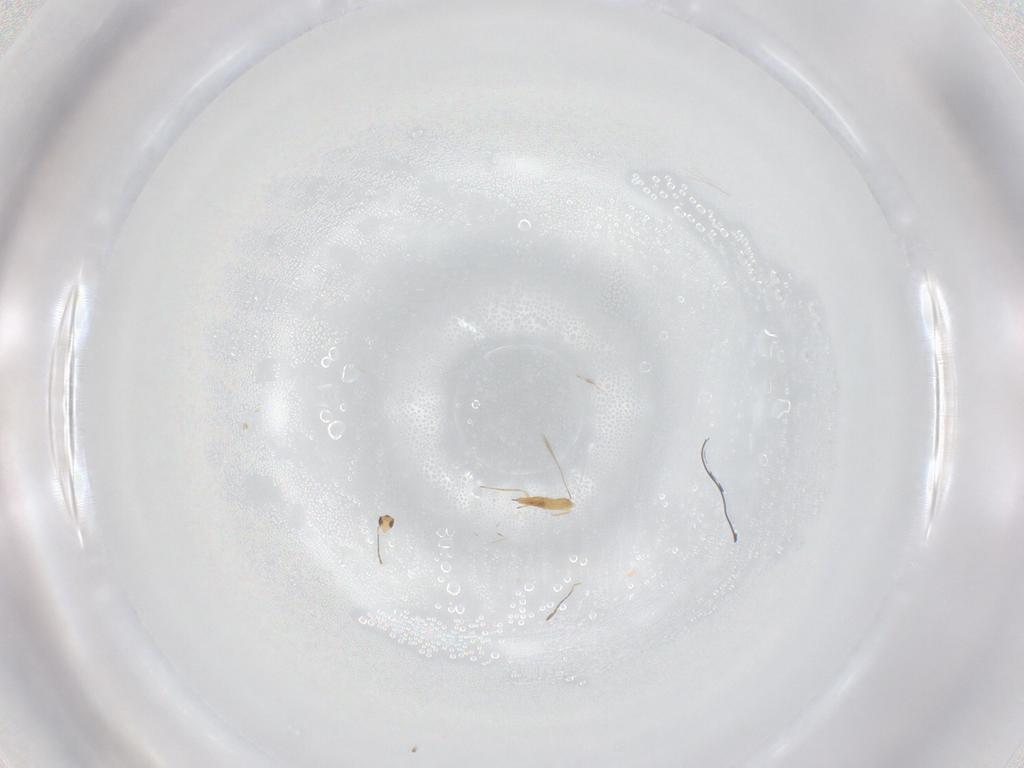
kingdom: Animalia
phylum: Arthropoda
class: Insecta
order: Hymenoptera
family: Mymaridae
